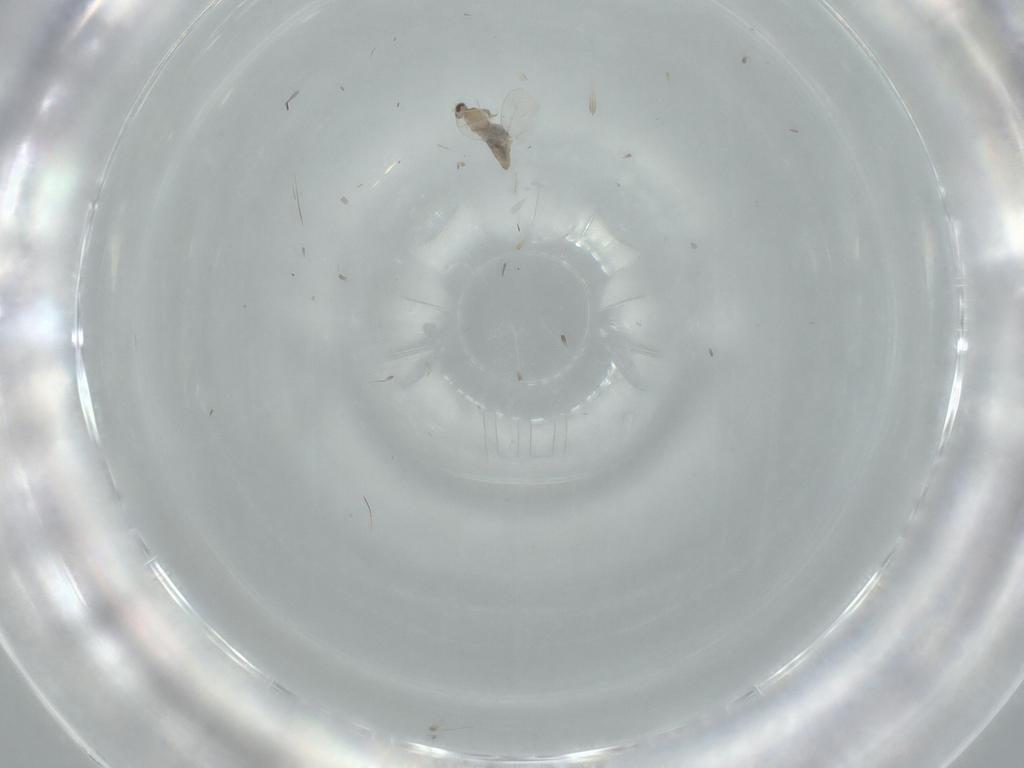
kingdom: Animalia
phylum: Arthropoda
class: Insecta
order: Diptera
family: Cecidomyiidae
